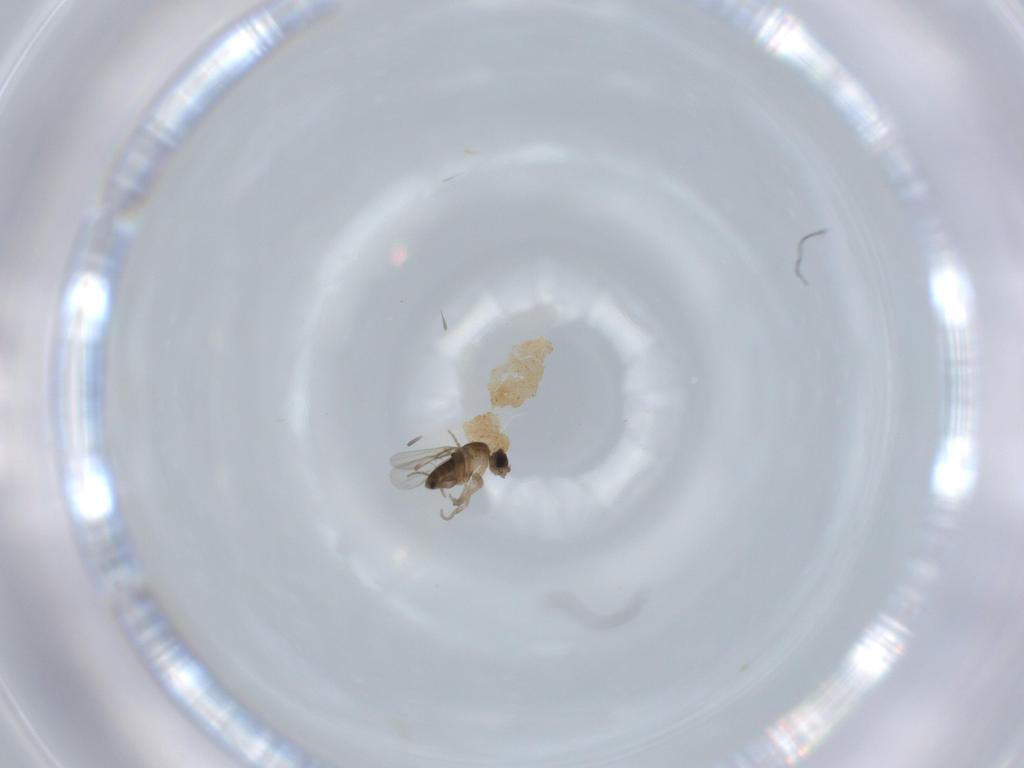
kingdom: Animalia
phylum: Arthropoda
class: Insecta
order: Diptera
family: Phoridae
